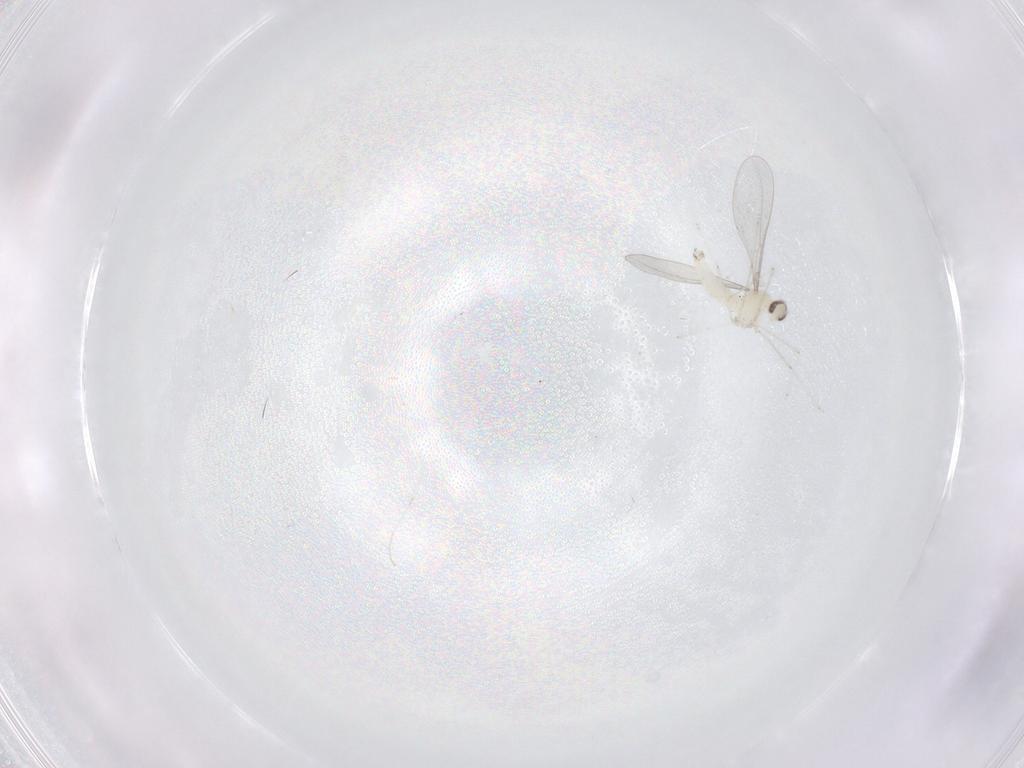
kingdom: Animalia
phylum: Arthropoda
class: Insecta
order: Diptera
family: Cecidomyiidae
